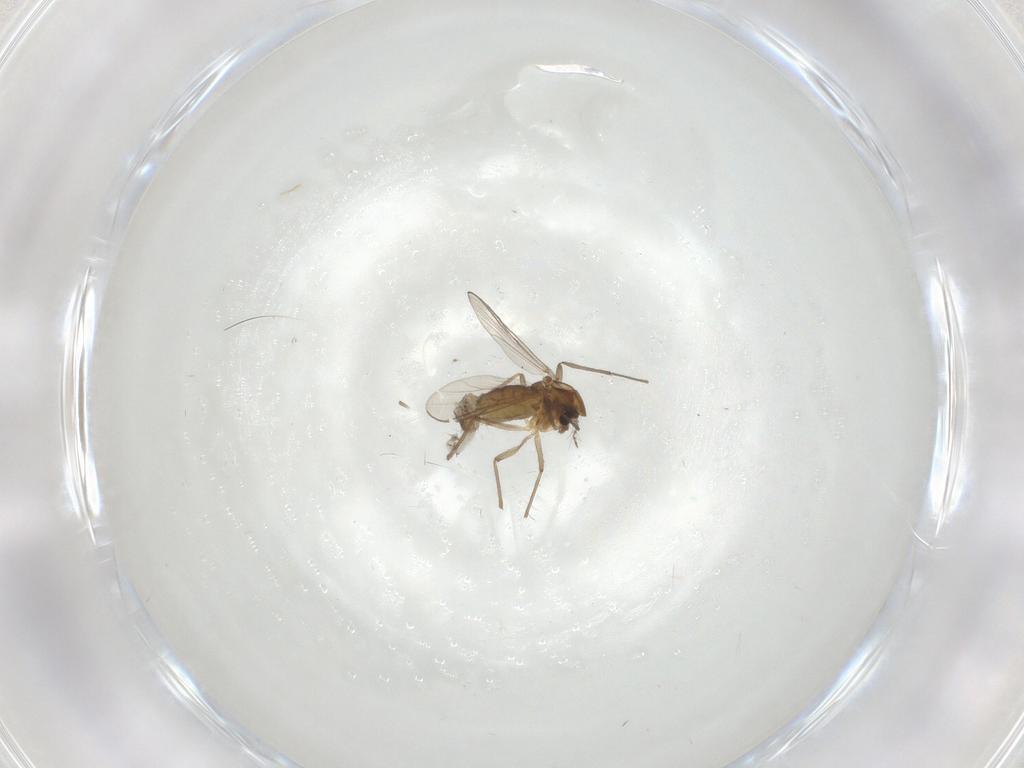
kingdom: Animalia
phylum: Arthropoda
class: Insecta
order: Diptera
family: Chironomidae
